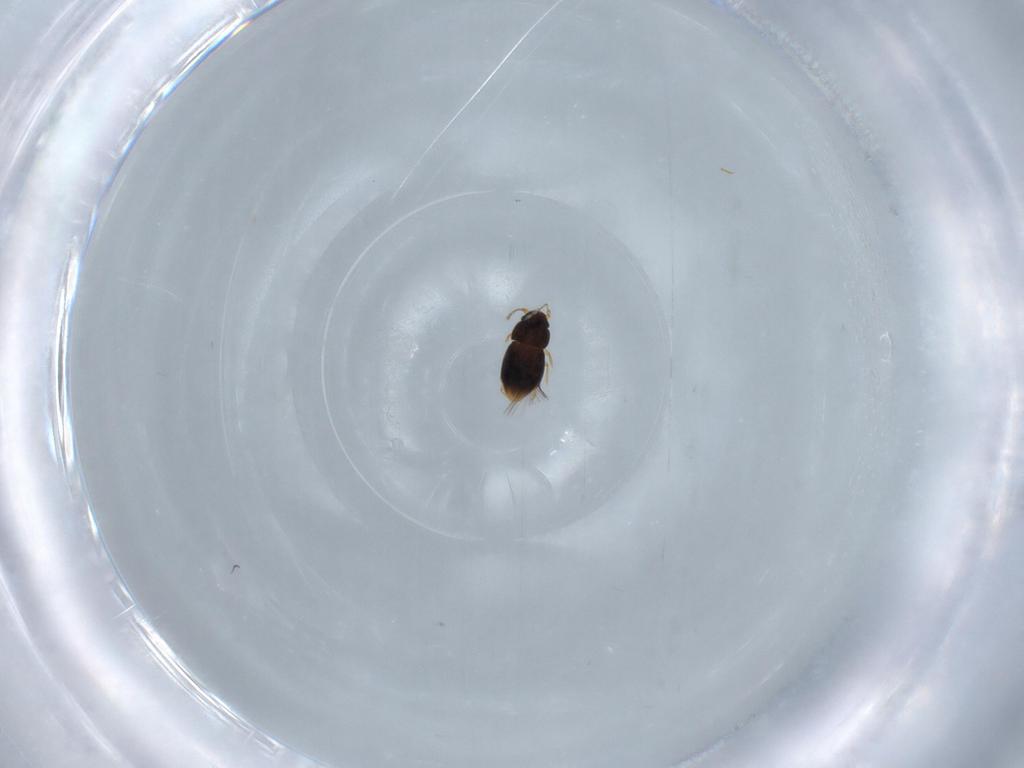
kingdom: Animalia
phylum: Arthropoda
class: Insecta
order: Coleoptera
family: Ptiliidae
